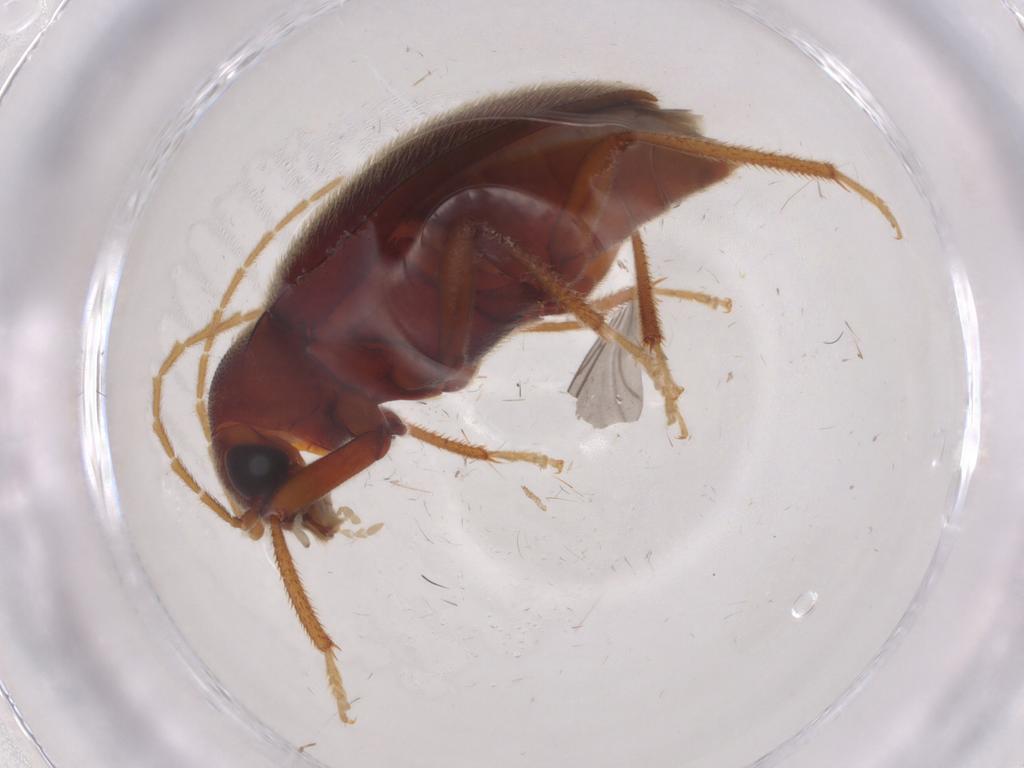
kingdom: Animalia
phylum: Arthropoda
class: Insecta
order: Coleoptera
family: Ptilodactylidae
